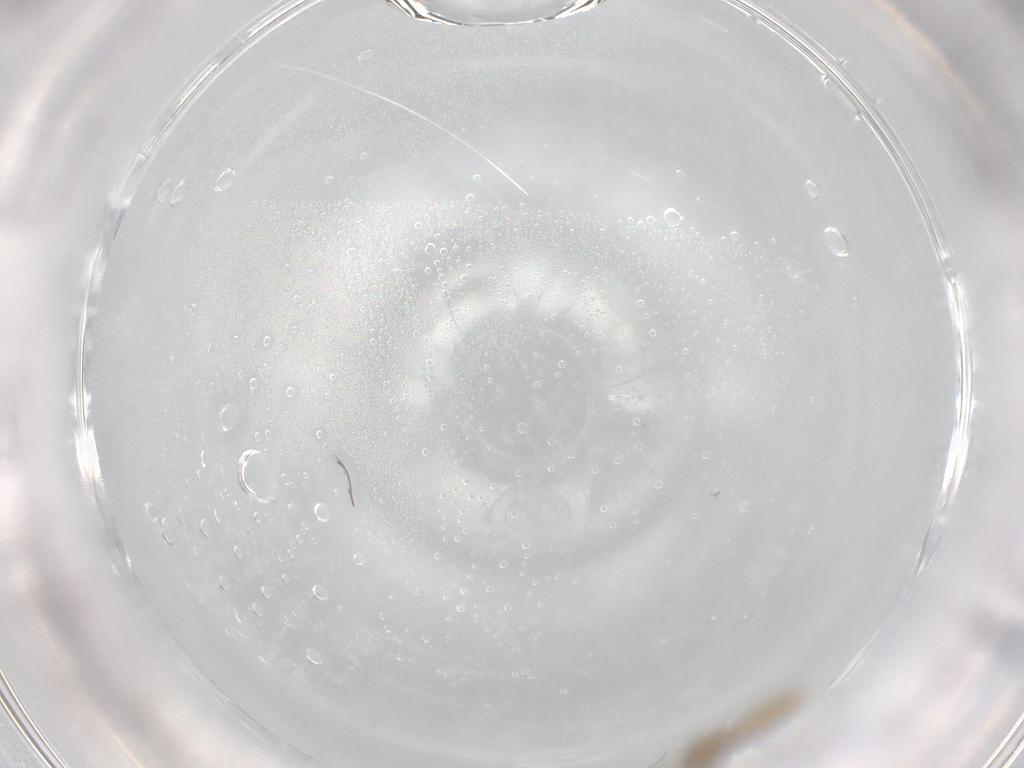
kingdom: Animalia
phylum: Arthropoda
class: Insecta
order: Diptera
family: Cecidomyiidae
